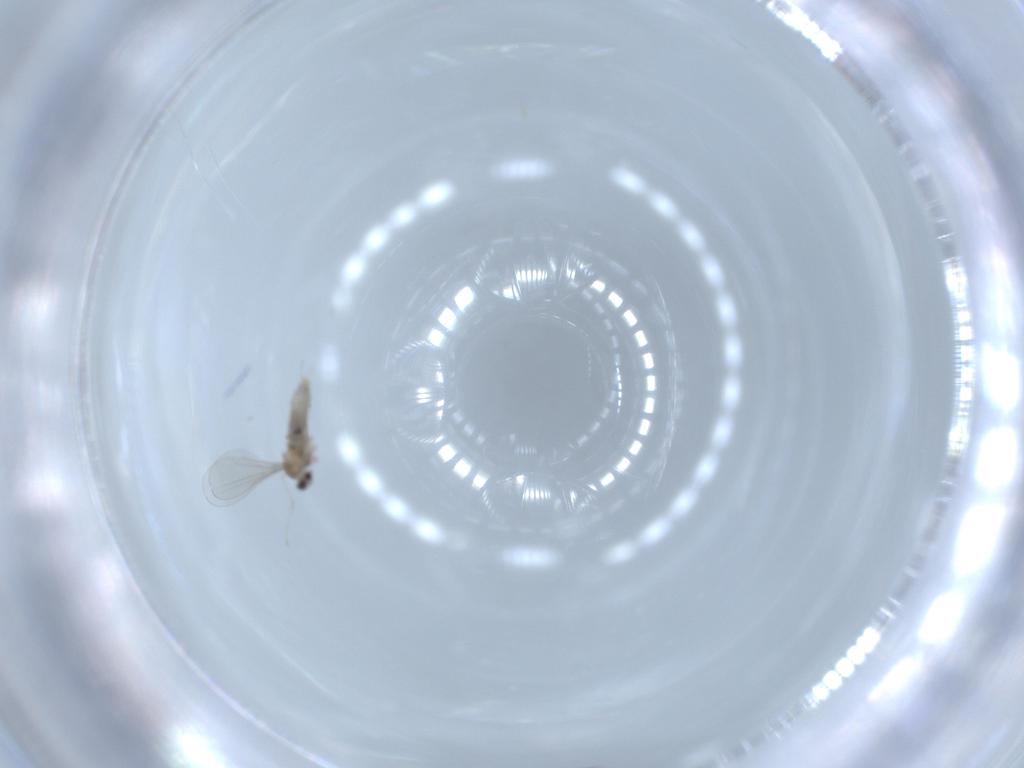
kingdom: Animalia
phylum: Arthropoda
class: Insecta
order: Diptera
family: Cecidomyiidae
